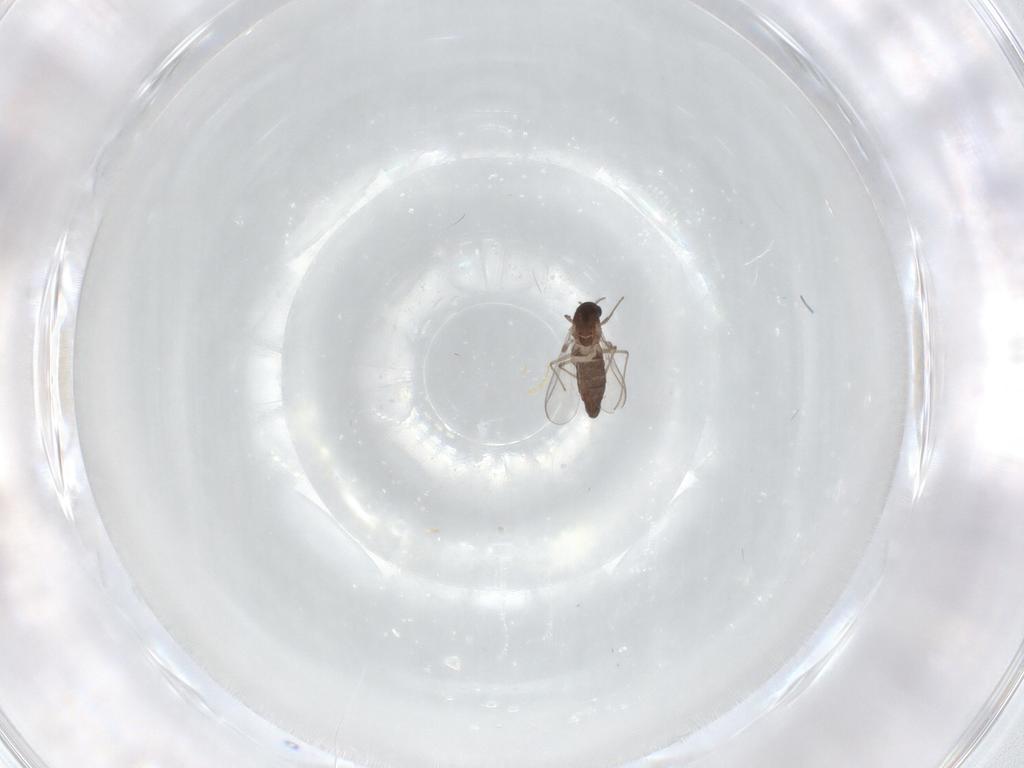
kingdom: Animalia
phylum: Arthropoda
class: Insecta
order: Diptera
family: Chironomidae
